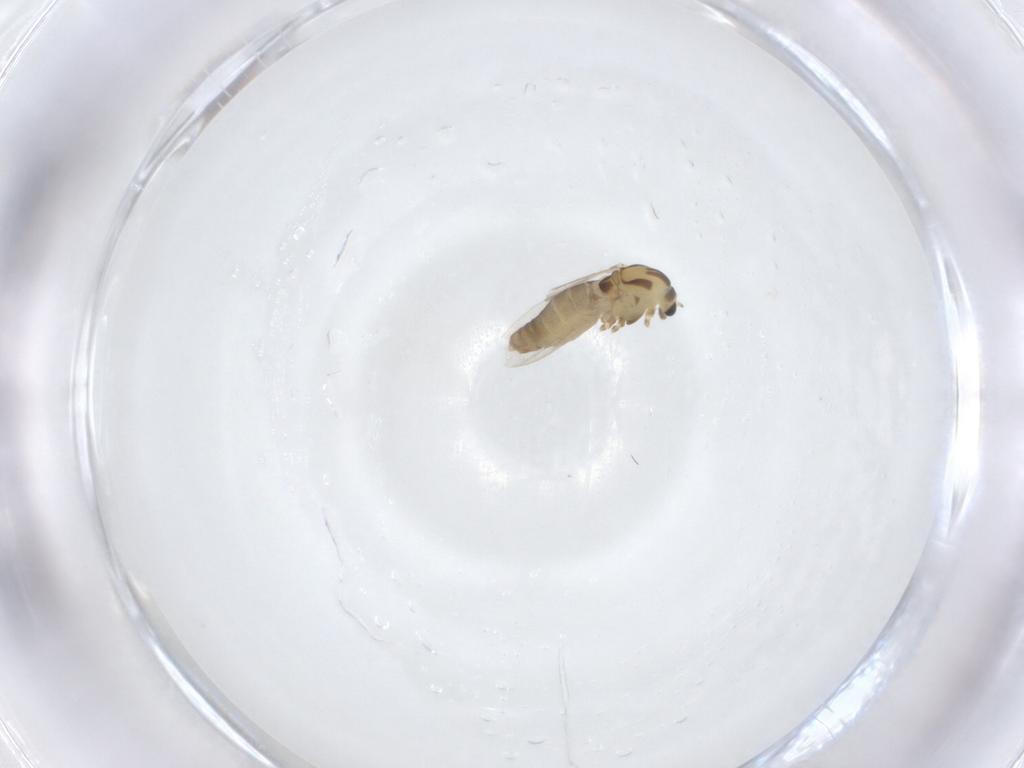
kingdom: Animalia
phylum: Arthropoda
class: Insecta
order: Diptera
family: Chironomidae
